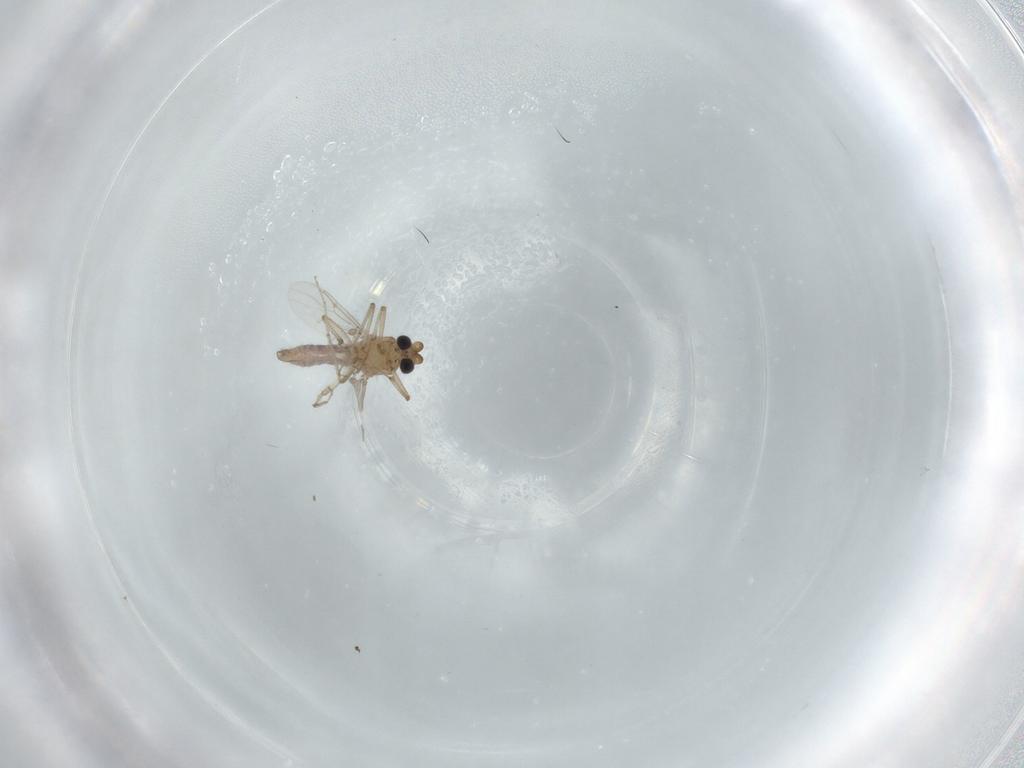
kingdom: Animalia
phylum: Arthropoda
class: Insecta
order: Diptera
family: Ceratopogonidae
